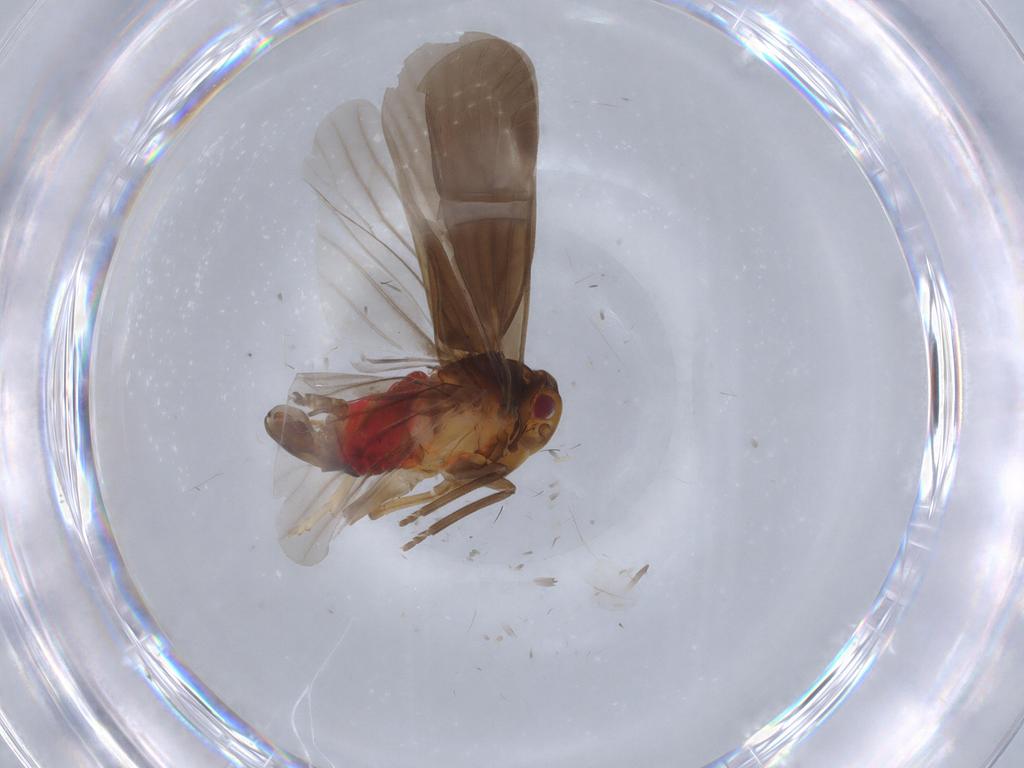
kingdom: Animalia
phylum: Arthropoda
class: Insecta
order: Hemiptera
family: Derbidae
